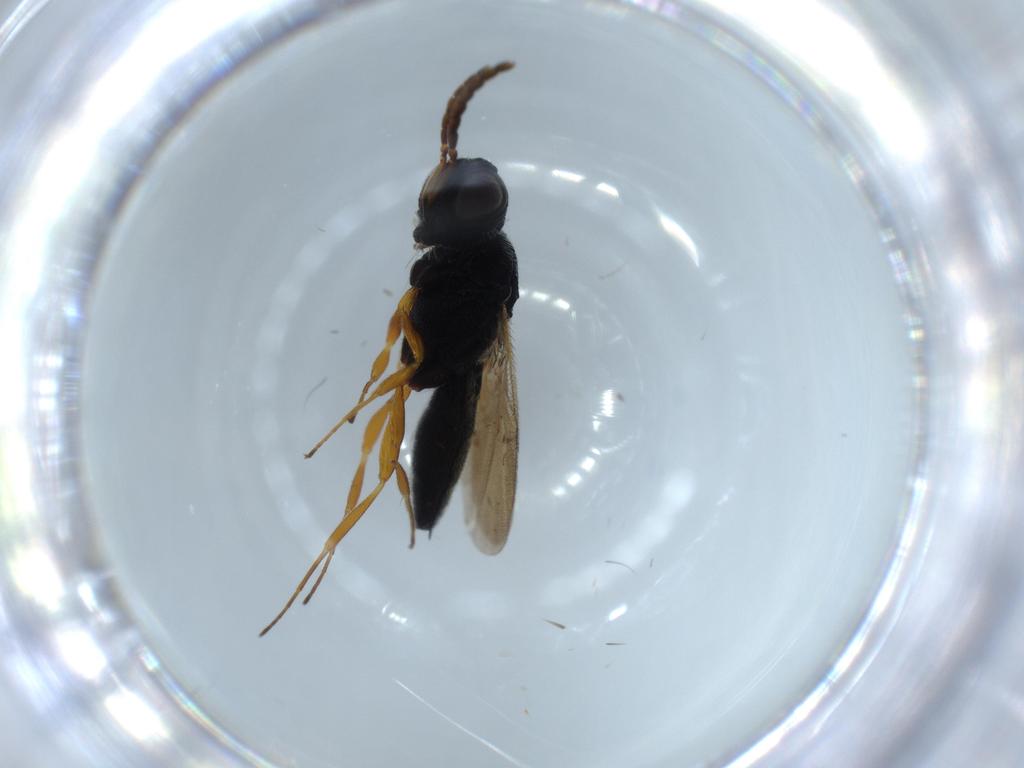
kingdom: Animalia
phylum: Arthropoda
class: Insecta
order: Hymenoptera
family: Scelionidae
